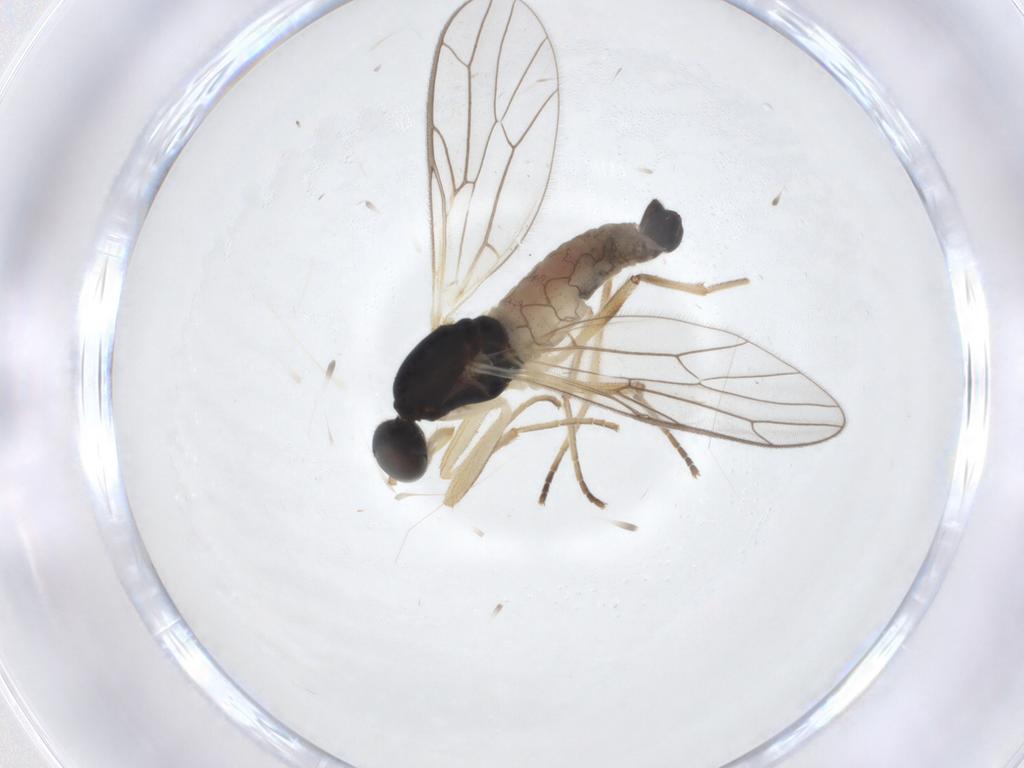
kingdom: Animalia
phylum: Arthropoda
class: Insecta
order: Diptera
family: Empididae
